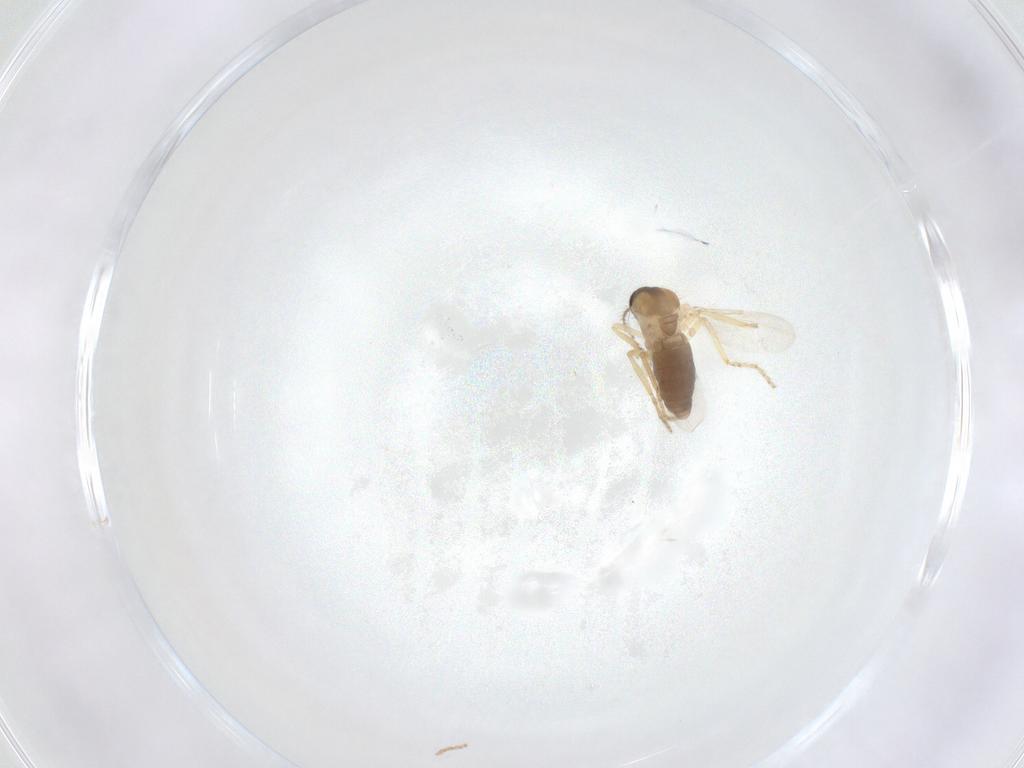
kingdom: Animalia
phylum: Arthropoda
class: Insecta
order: Diptera
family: Ceratopogonidae
